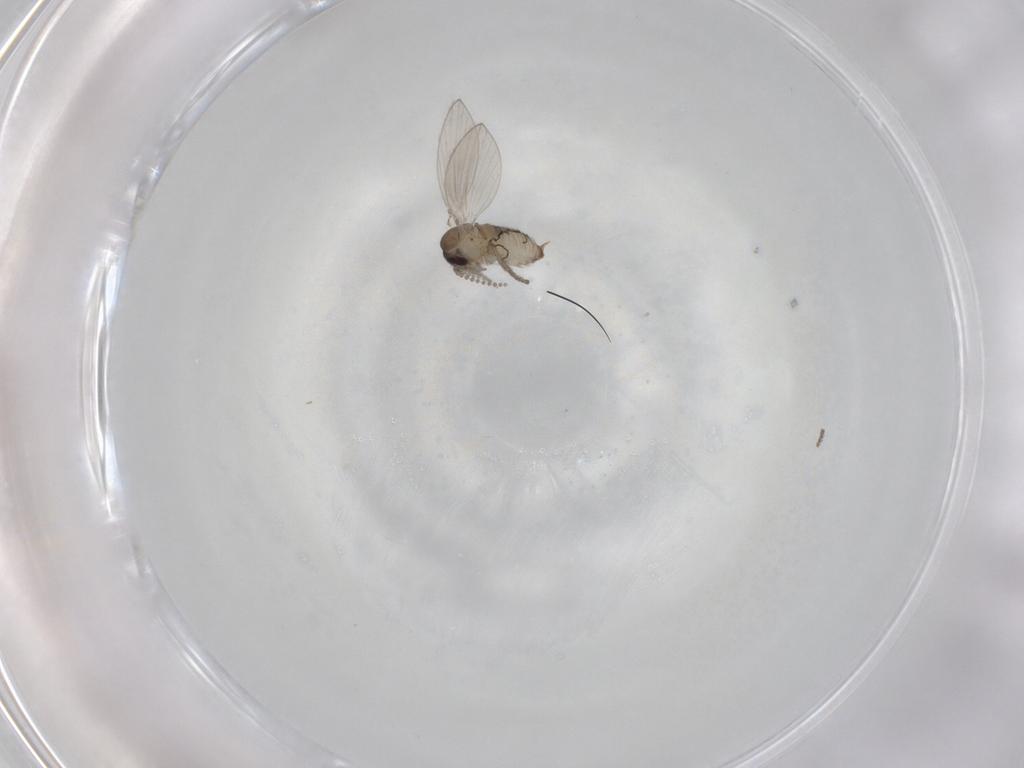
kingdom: Animalia
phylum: Arthropoda
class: Insecta
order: Diptera
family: Psychodidae
